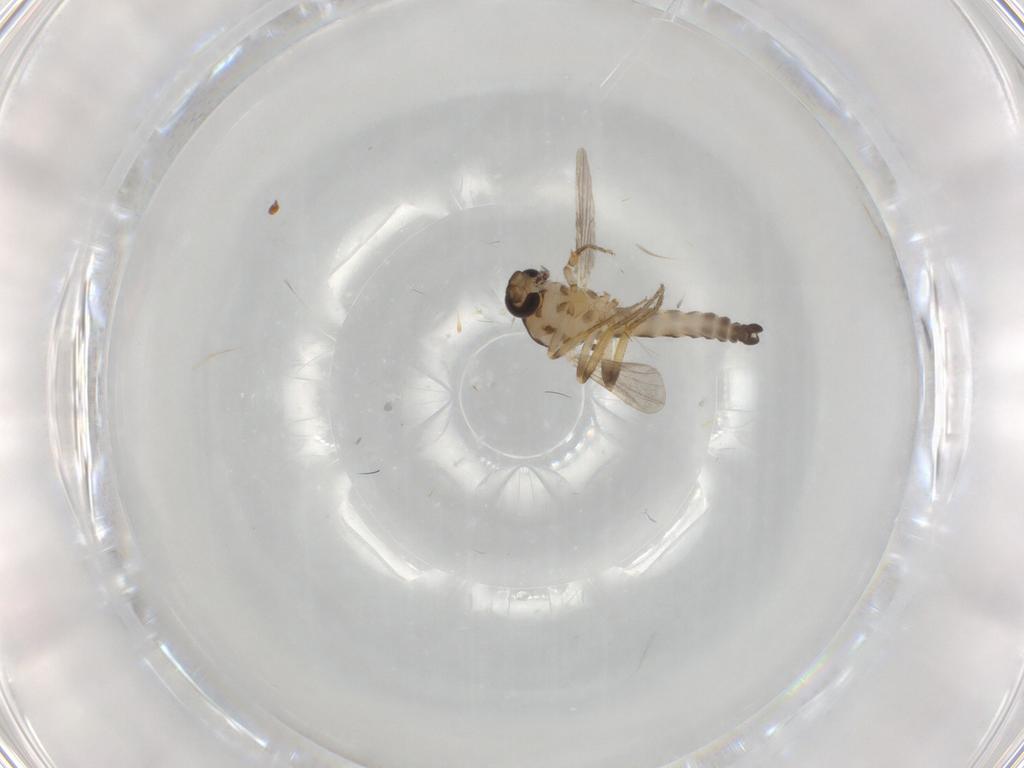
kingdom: Animalia
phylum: Arthropoda
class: Insecta
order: Diptera
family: Ceratopogonidae
